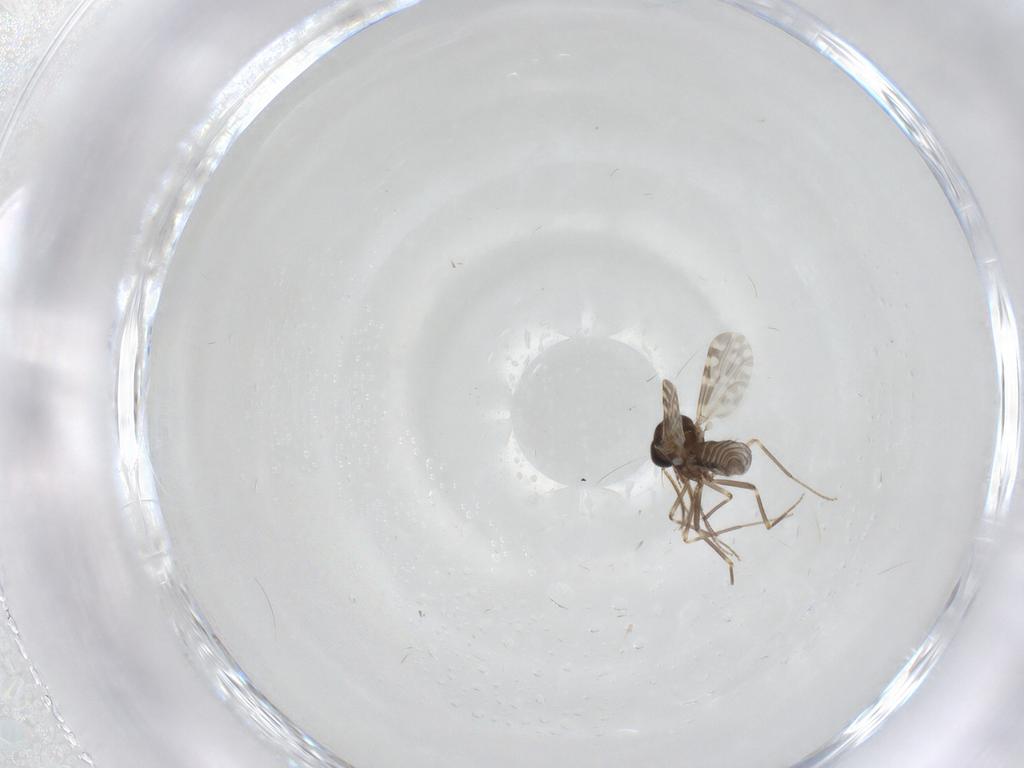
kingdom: Animalia
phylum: Arthropoda
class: Insecta
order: Diptera
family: Ceratopogonidae
